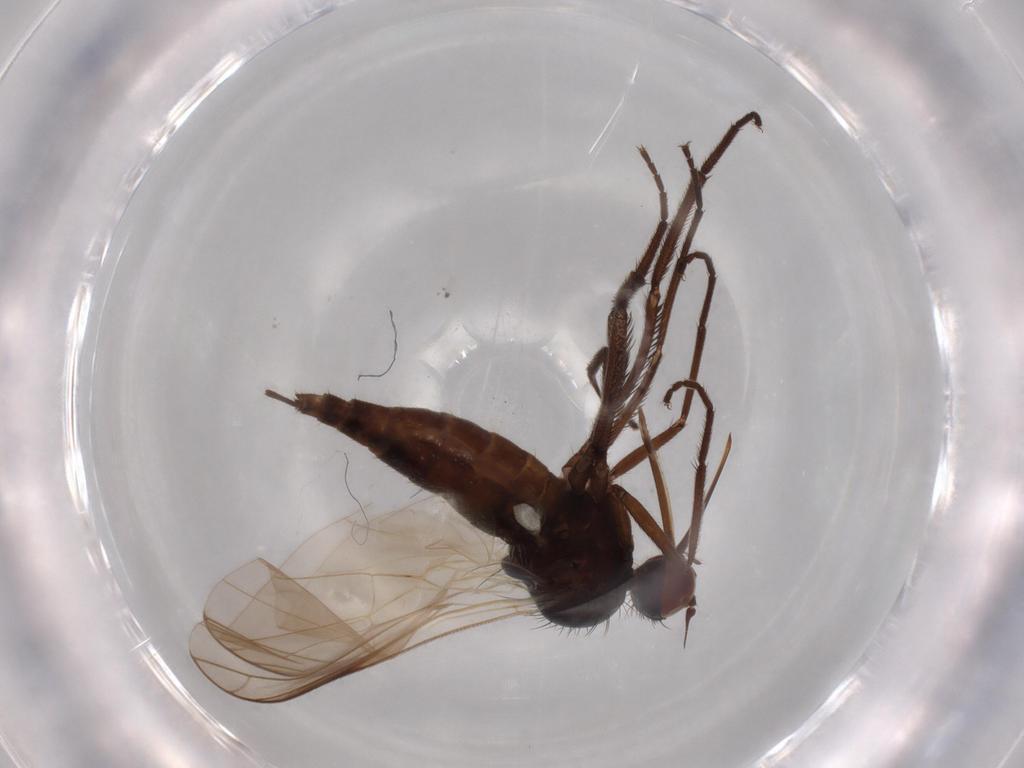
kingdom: Animalia
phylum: Arthropoda
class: Insecta
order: Diptera
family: Empididae
